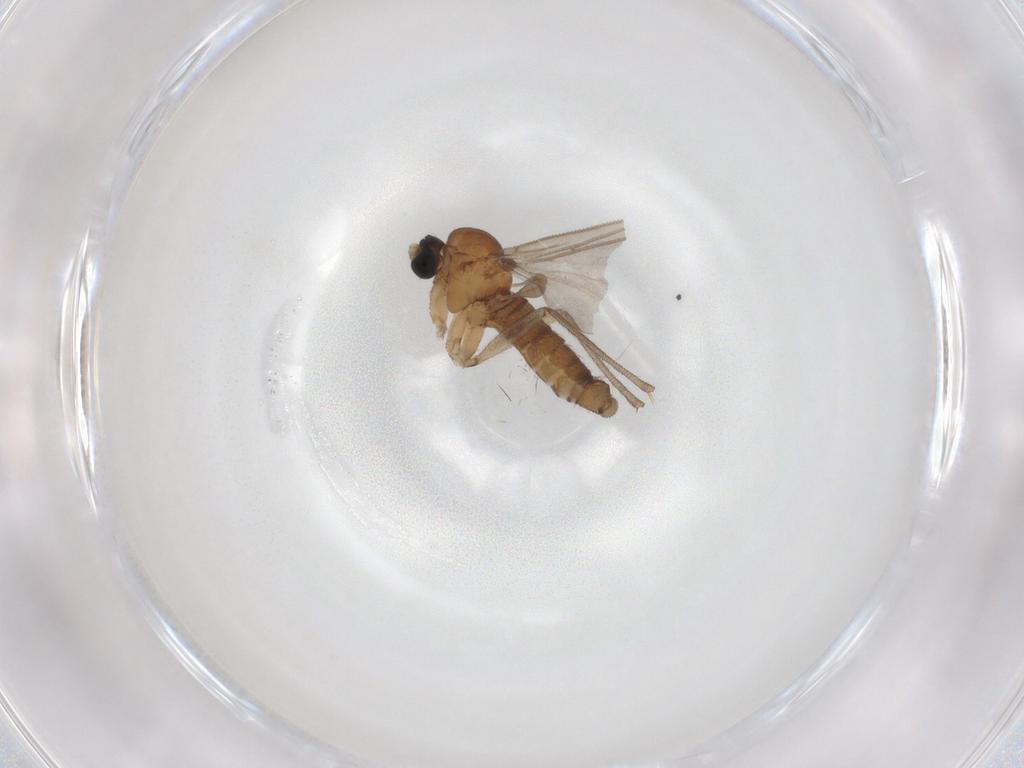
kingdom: Animalia
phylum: Arthropoda
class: Insecta
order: Diptera
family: Sciaridae
